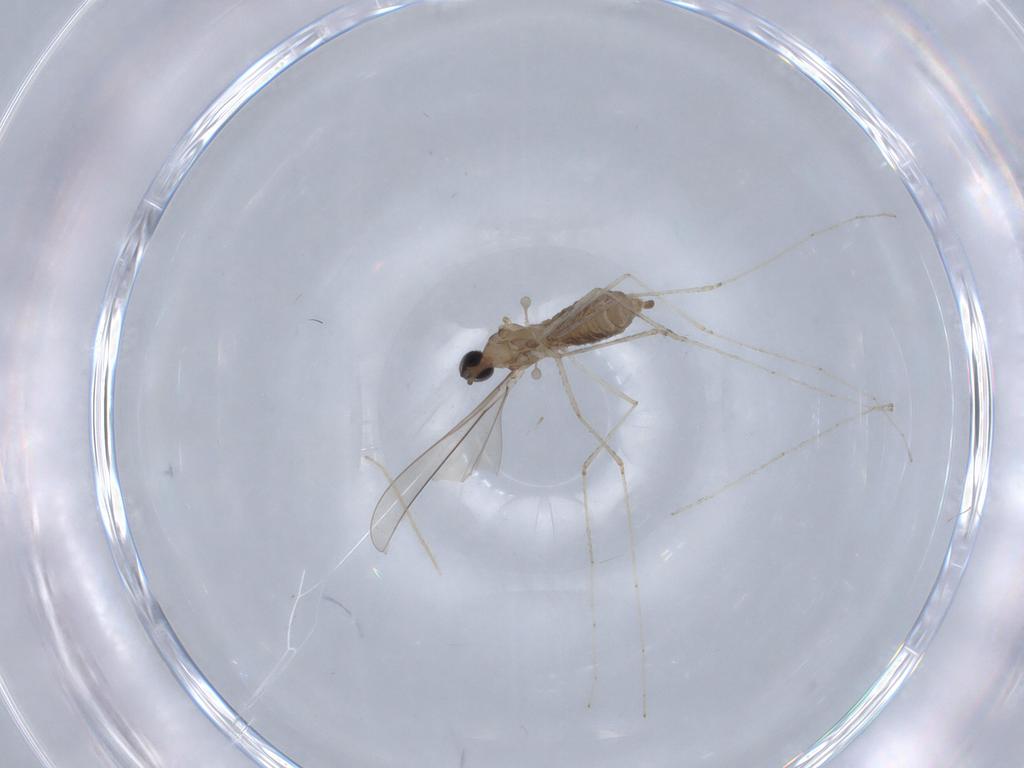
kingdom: Animalia
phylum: Arthropoda
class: Insecta
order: Diptera
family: Cecidomyiidae
